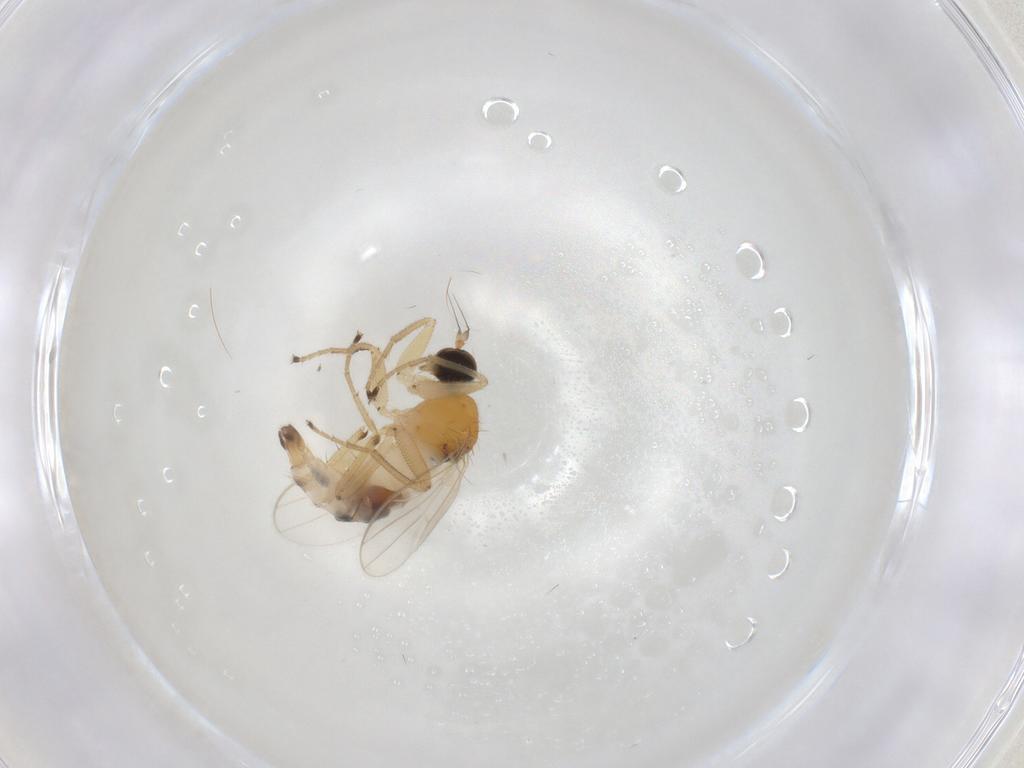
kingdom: Animalia
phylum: Arthropoda
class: Insecta
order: Diptera
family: Hybotidae
